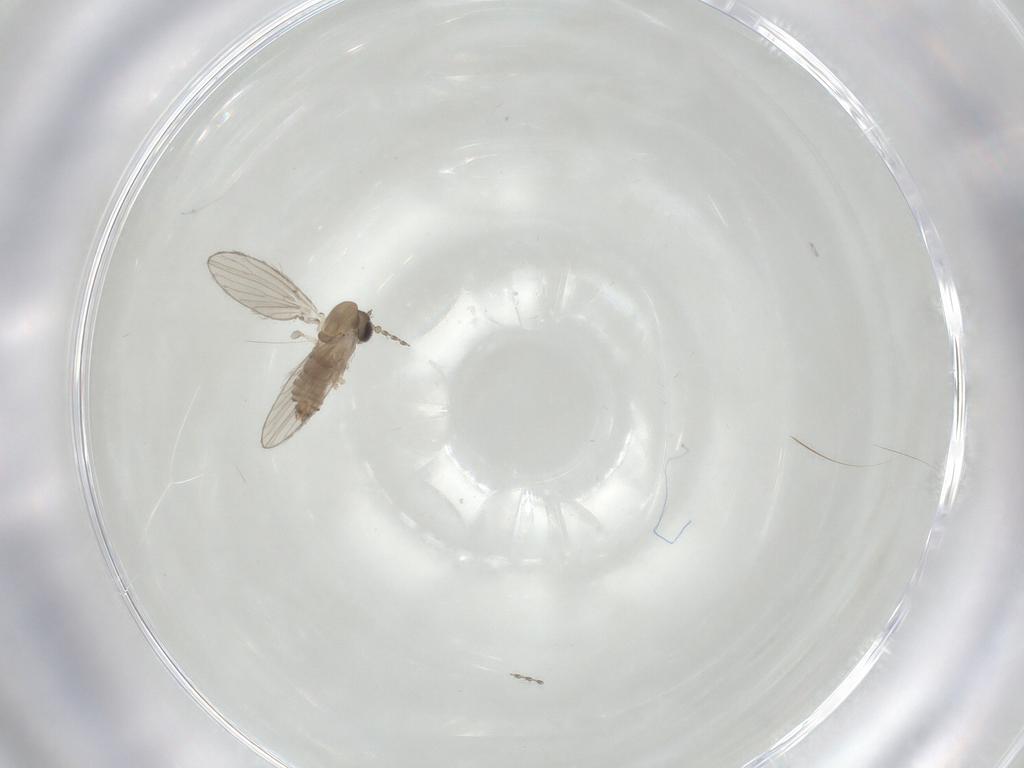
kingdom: Animalia
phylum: Arthropoda
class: Insecta
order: Diptera
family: Psychodidae
